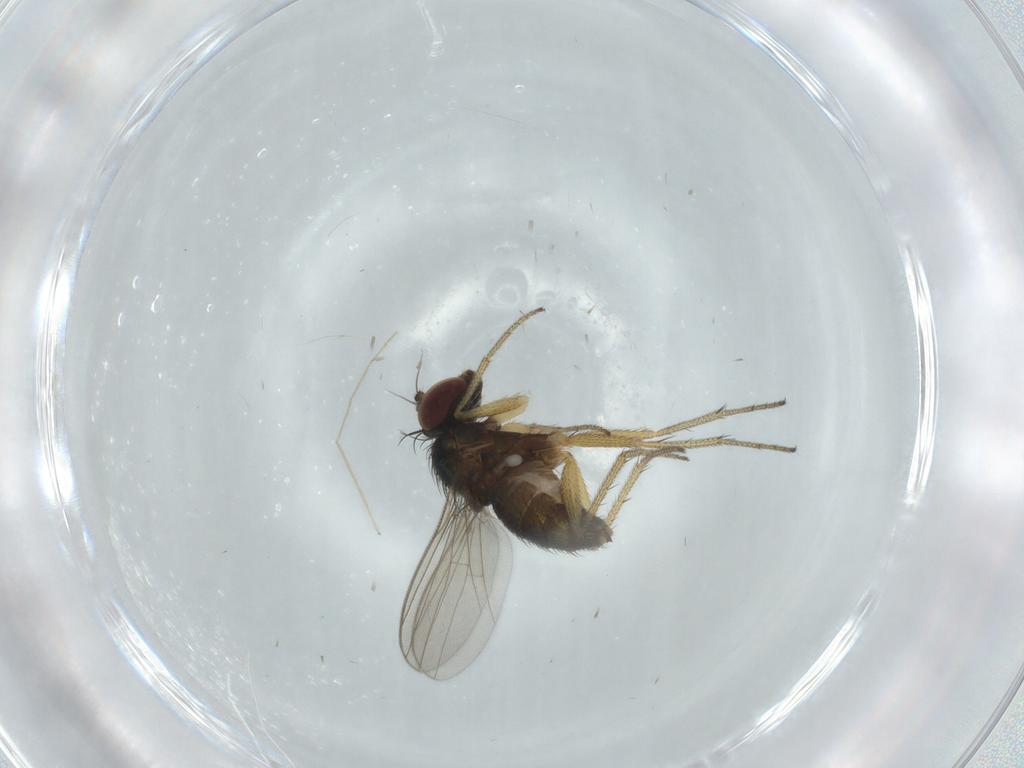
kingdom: Animalia
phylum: Arthropoda
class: Insecta
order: Diptera
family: Dolichopodidae
